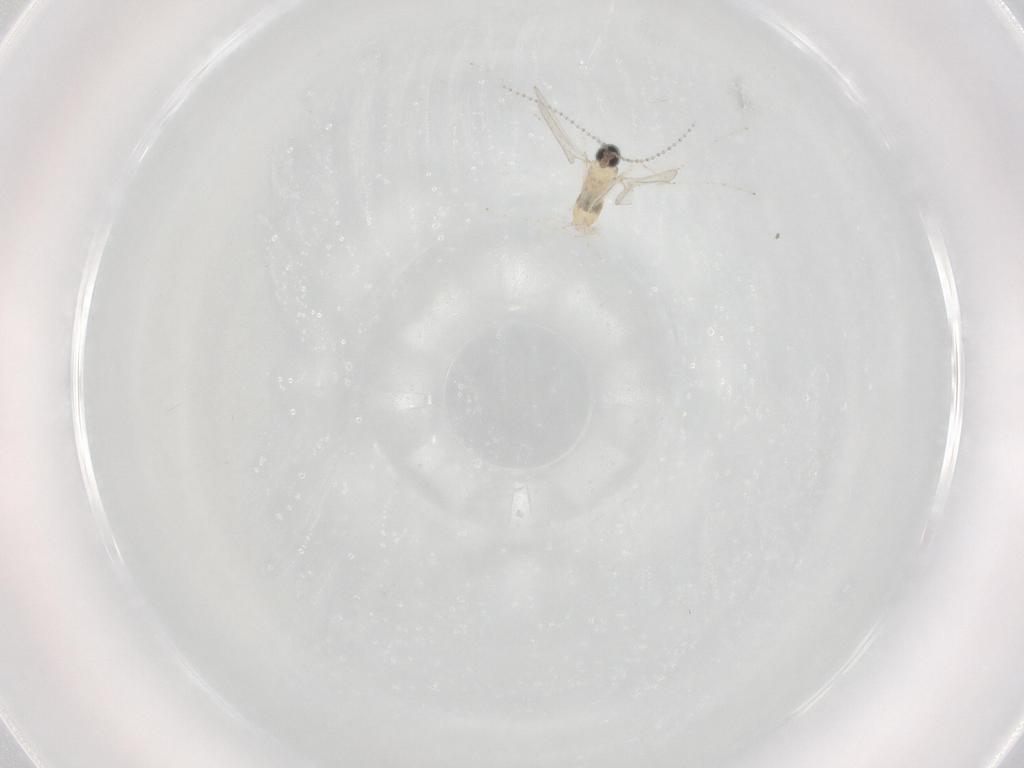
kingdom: Animalia
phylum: Arthropoda
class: Insecta
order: Diptera
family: Cecidomyiidae
